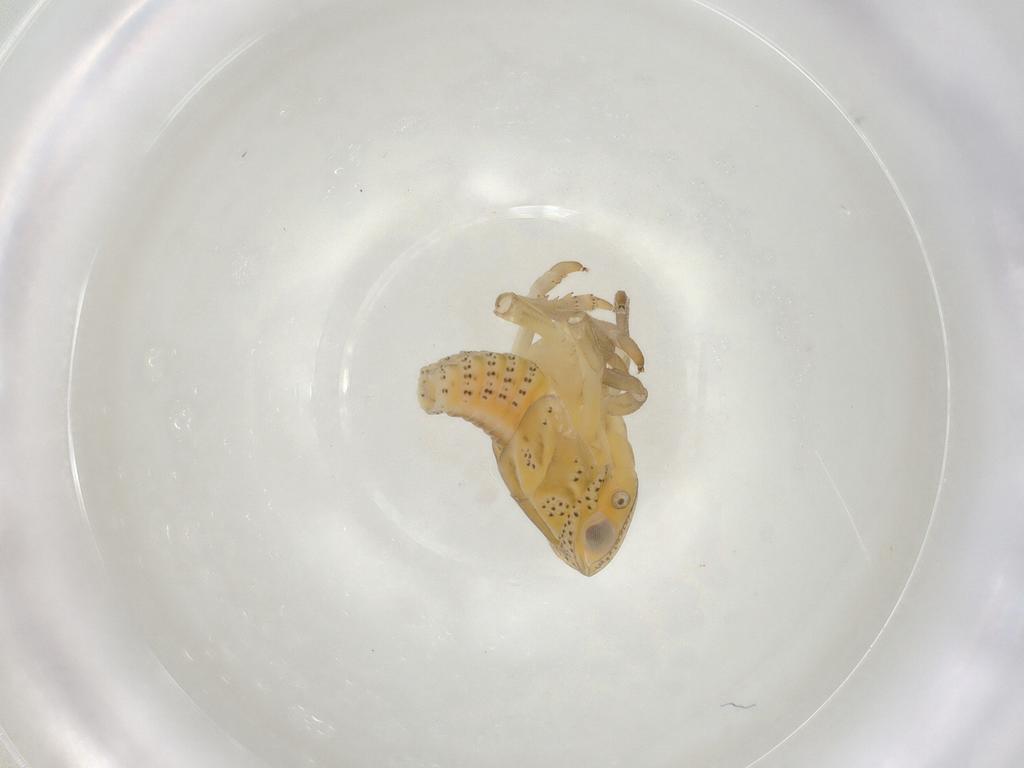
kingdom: Animalia
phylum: Arthropoda
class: Insecta
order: Hemiptera
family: Tropiduchidae
